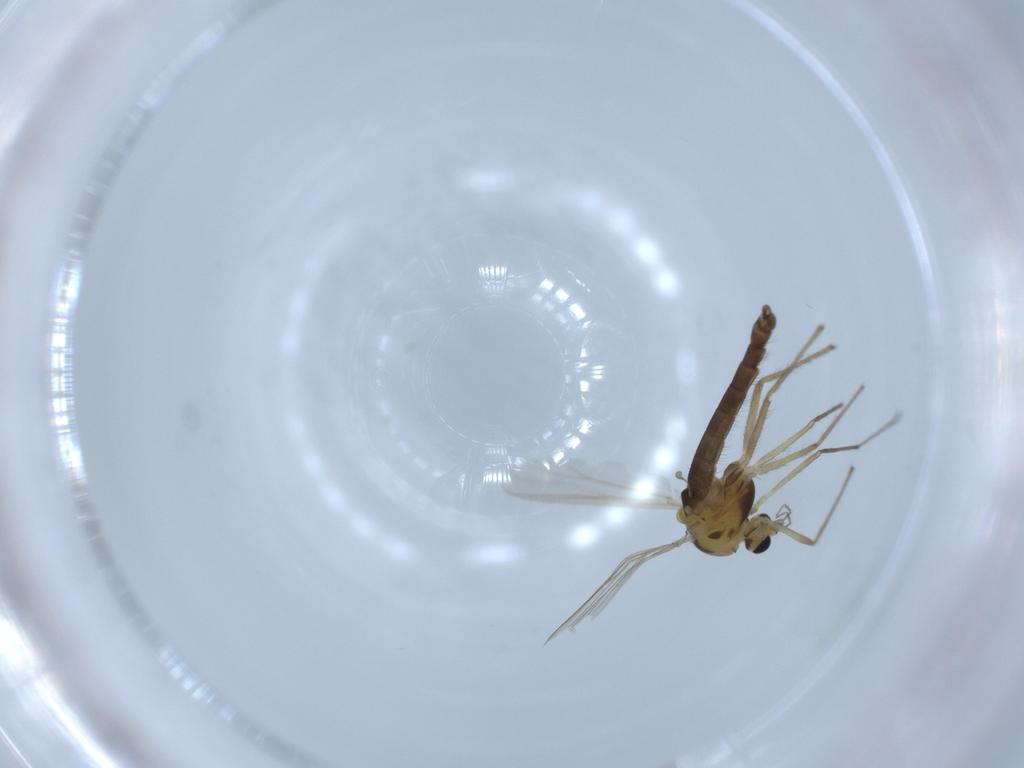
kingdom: Animalia
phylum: Arthropoda
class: Insecta
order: Diptera
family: Chironomidae
